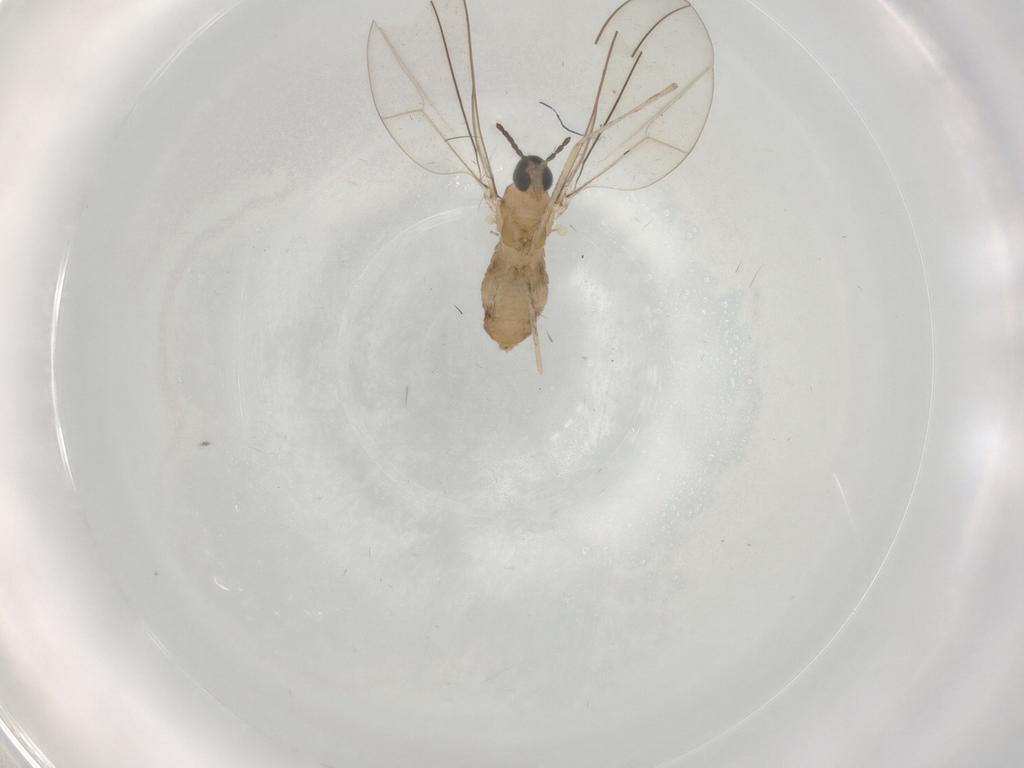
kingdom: Animalia
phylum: Arthropoda
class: Insecta
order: Diptera
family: Cecidomyiidae
